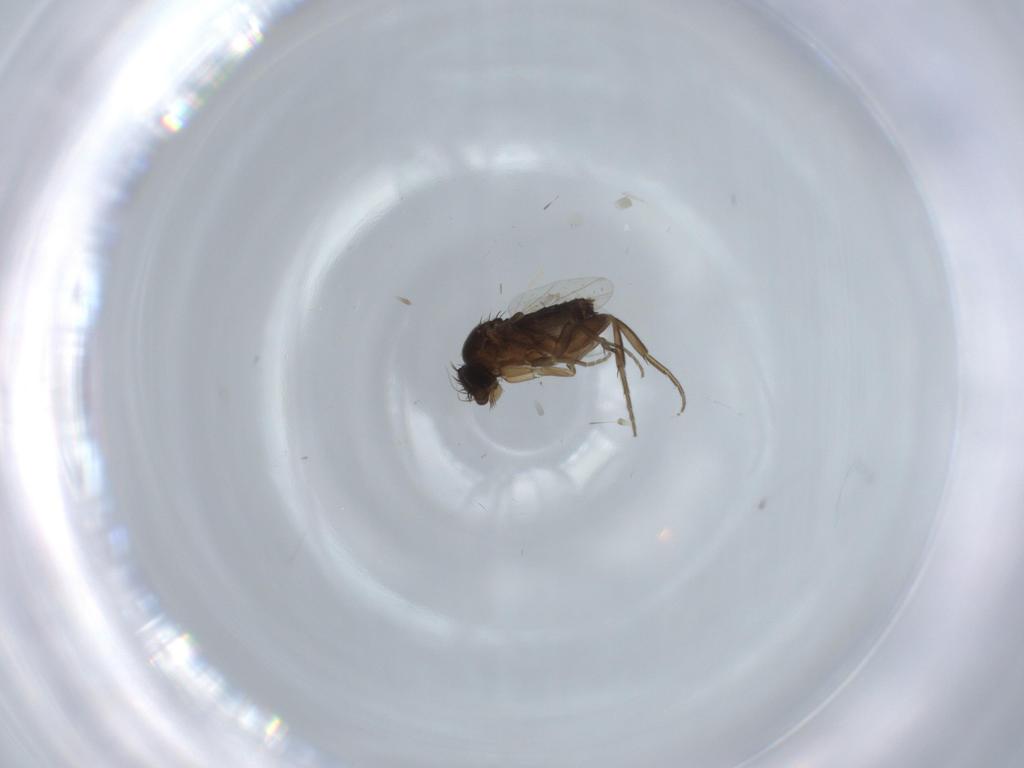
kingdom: Animalia
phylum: Arthropoda
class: Insecta
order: Diptera
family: Phoridae
